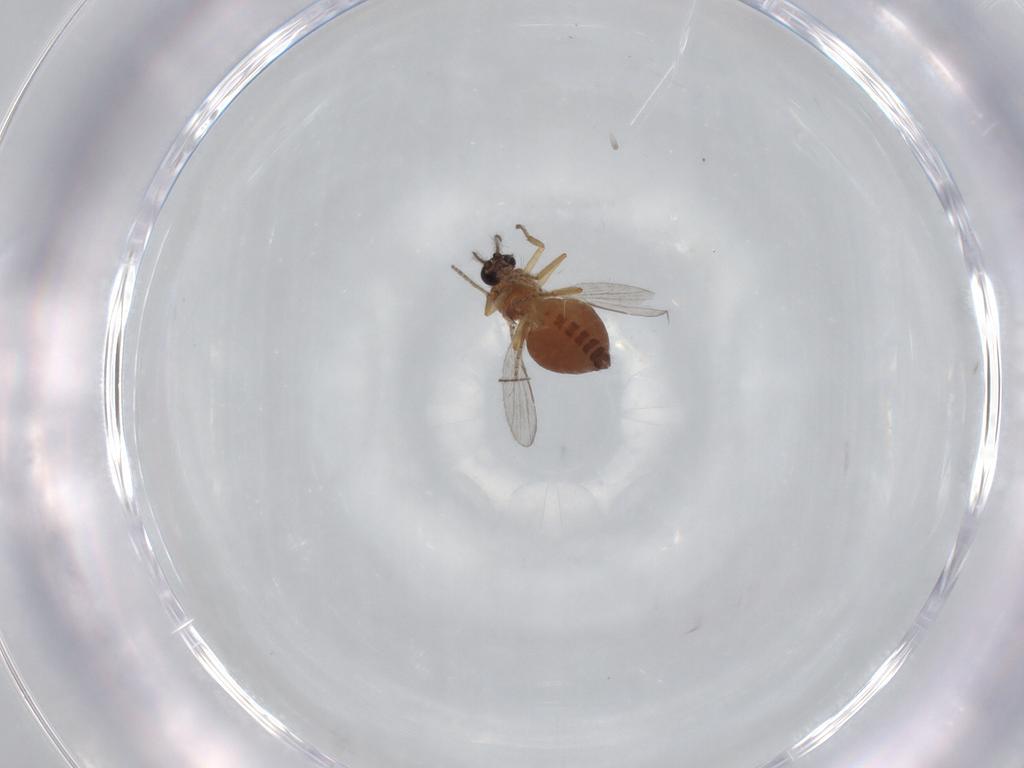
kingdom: Animalia
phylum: Arthropoda
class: Insecta
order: Diptera
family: Ceratopogonidae
